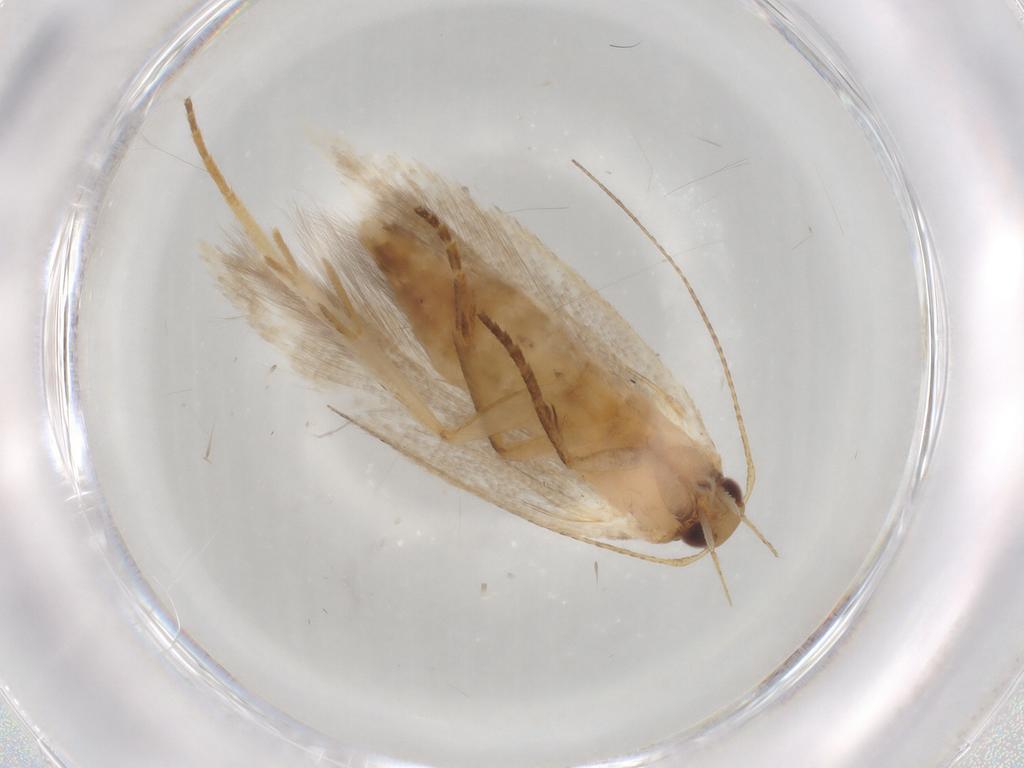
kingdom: Animalia
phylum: Arthropoda
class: Insecta
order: Lepidoptera
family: Gelechiidae
